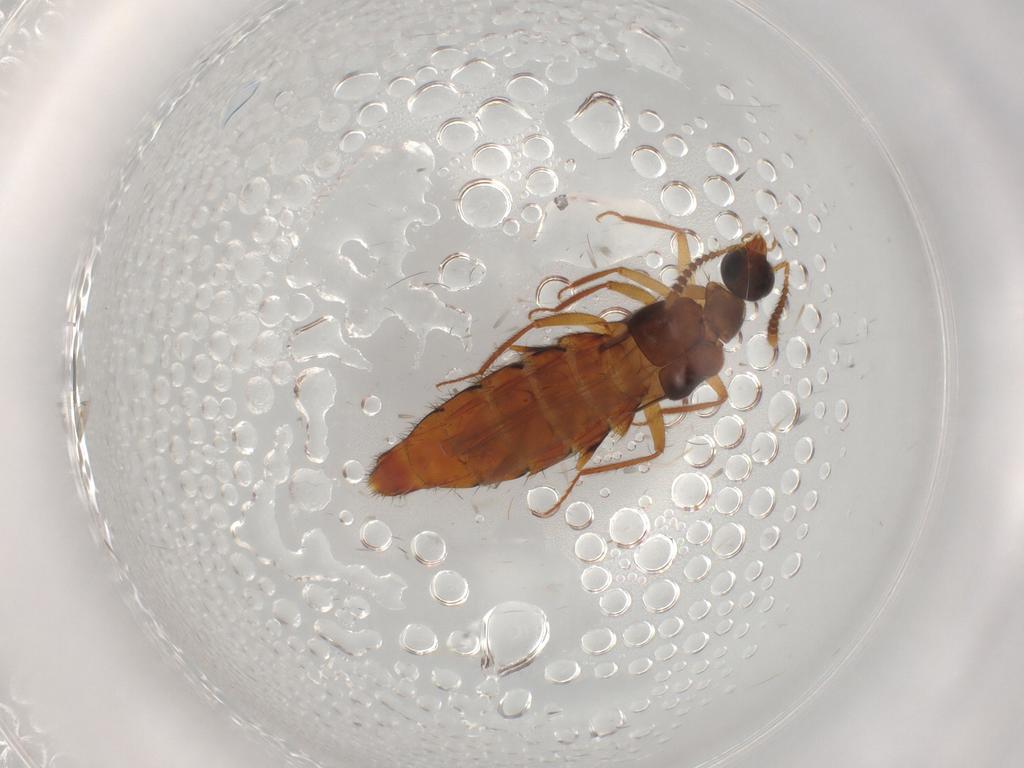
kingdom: Animalia
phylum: Arthropoda
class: Insecta
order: Coleoptera
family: Staphylinidae
